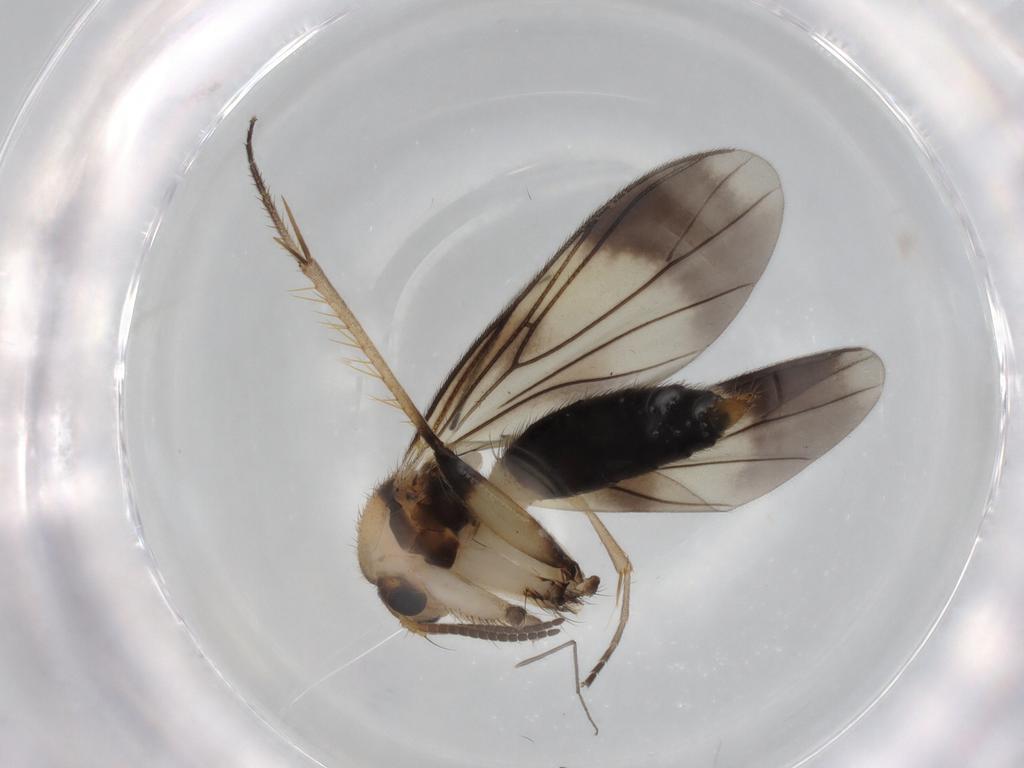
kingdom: Animalia
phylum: Arthropoda
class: Insecta
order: Diptera
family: Mycetophilidae
